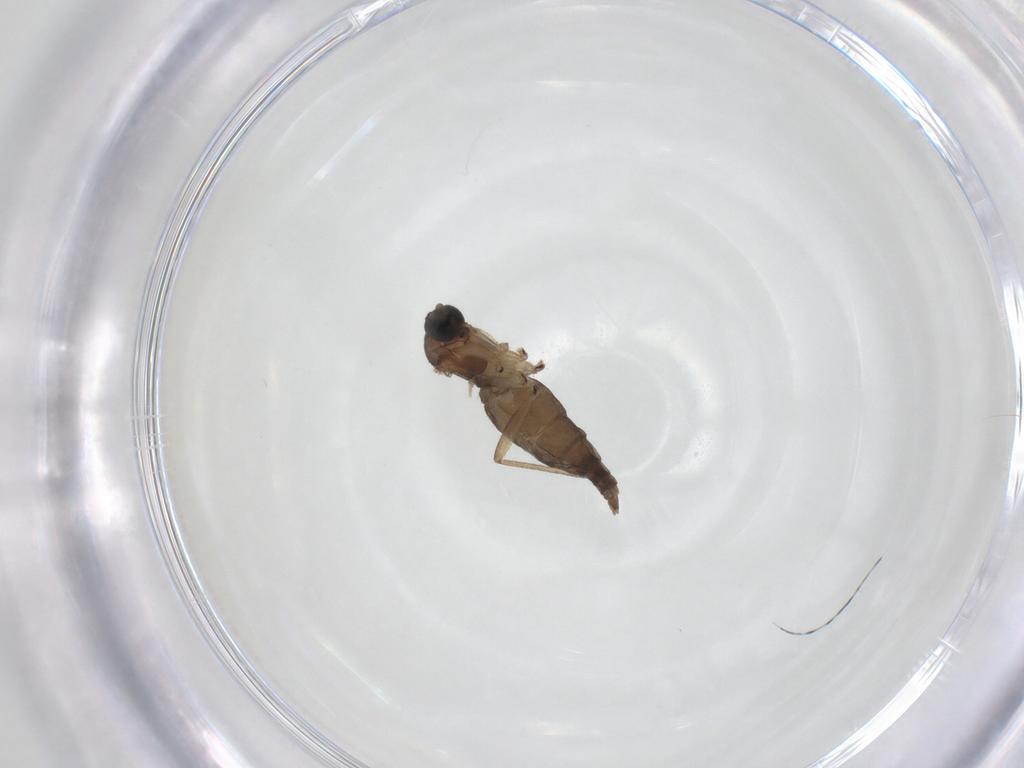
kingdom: Animalia
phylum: Arthropoda
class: Insecta
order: Diptera
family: Sciaridae
